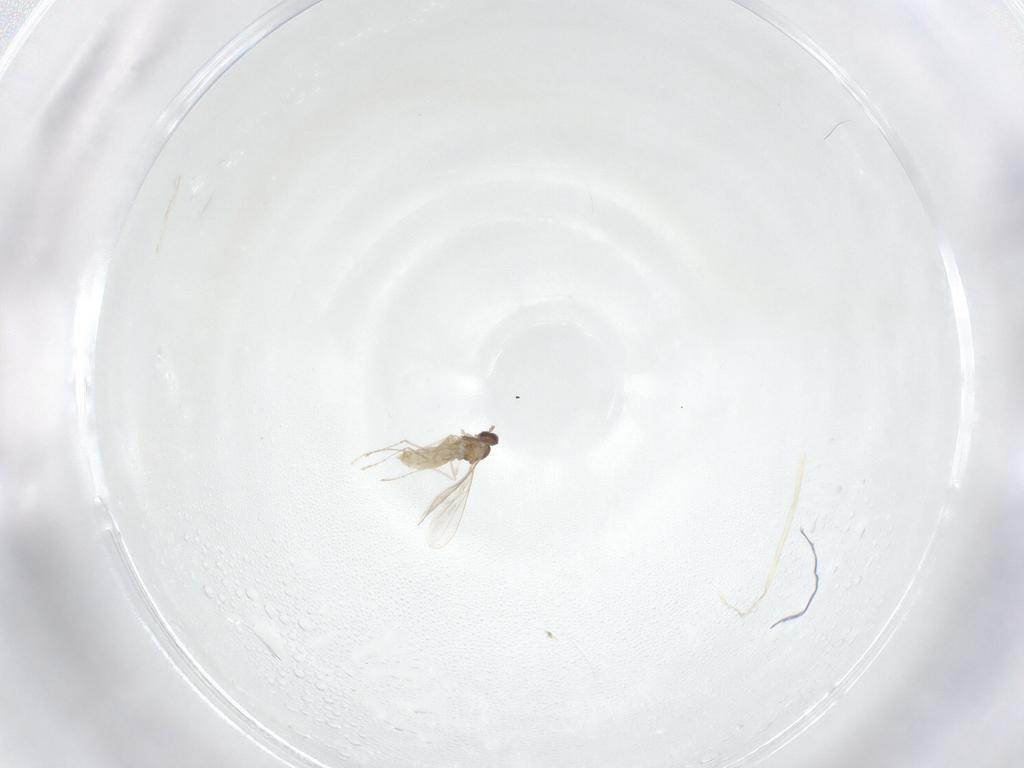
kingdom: Animalia
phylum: Arthropoda
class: Insecta
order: Diptera
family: Cecidomyiidae
